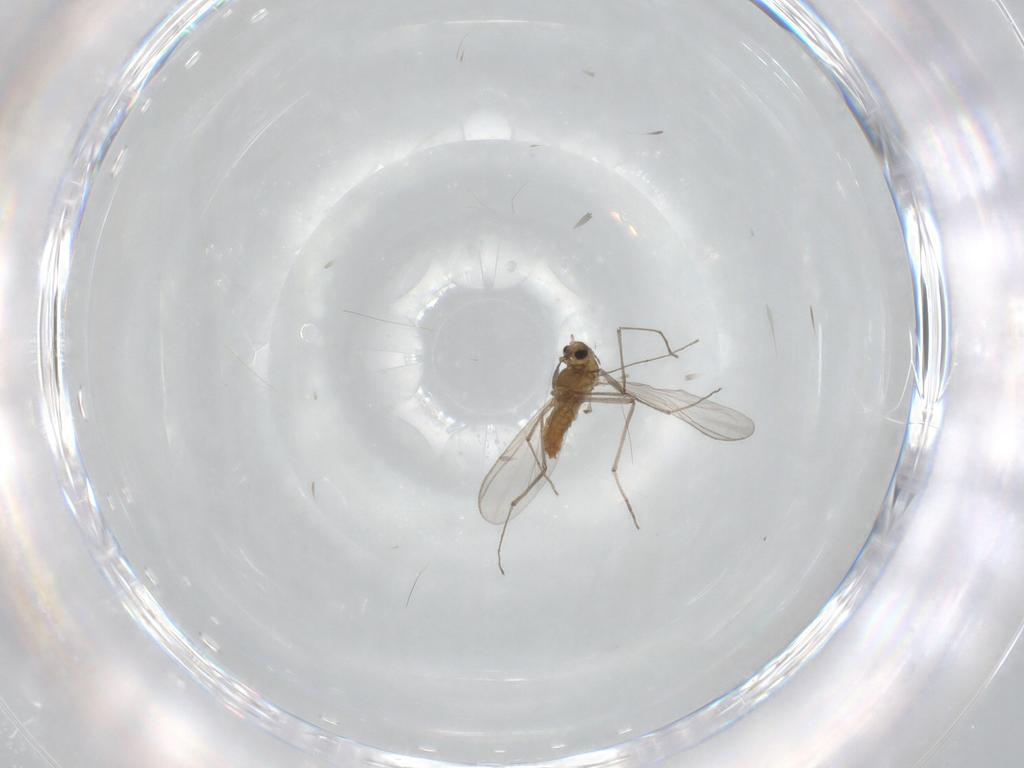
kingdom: Animalia
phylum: Arthropoda
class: Insecta
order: Diptera
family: Chironomidae
